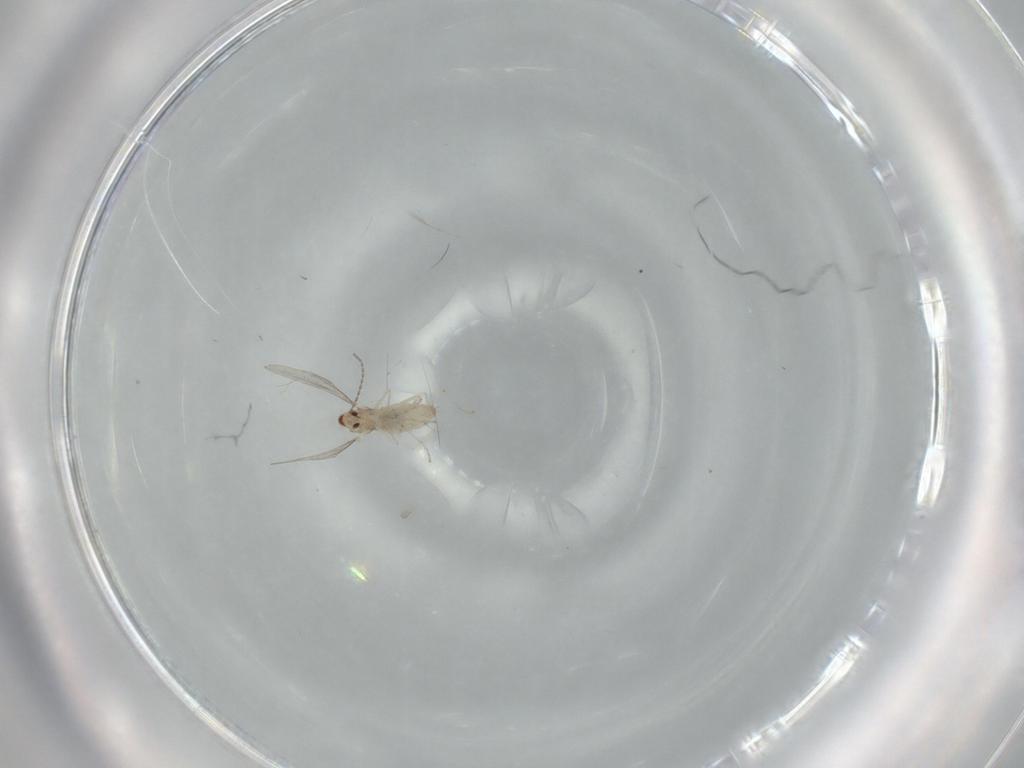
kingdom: Animalia
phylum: Arthropoda
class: Insecta
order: Diptera
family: Cecidomyiidae
